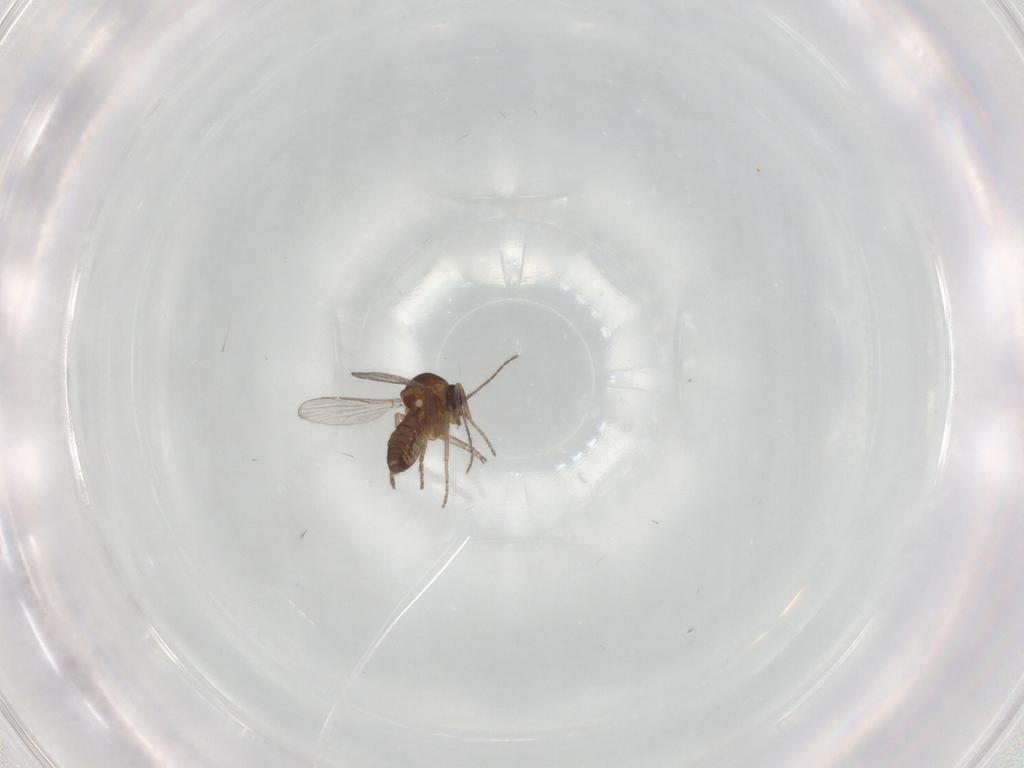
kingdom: Animalia
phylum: Arthropoda
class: Insecta
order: Diptera
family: Ceratopogonidae
